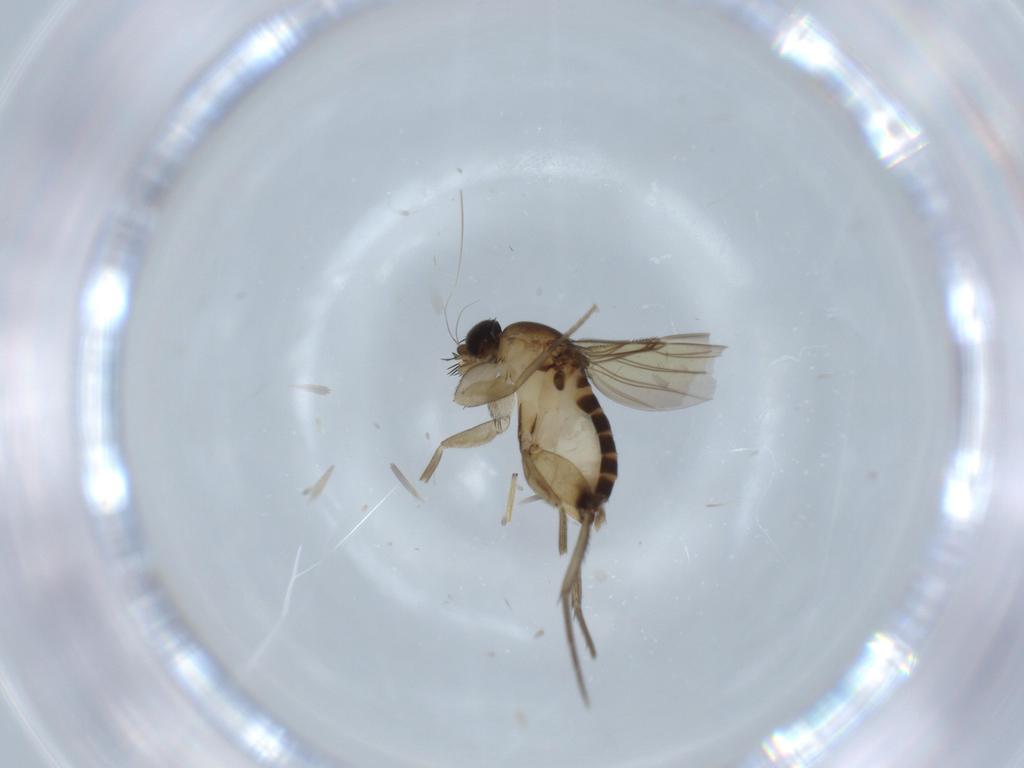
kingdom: Animalia
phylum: Arthropoda
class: Insecta
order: Diptera
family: Phoridae
